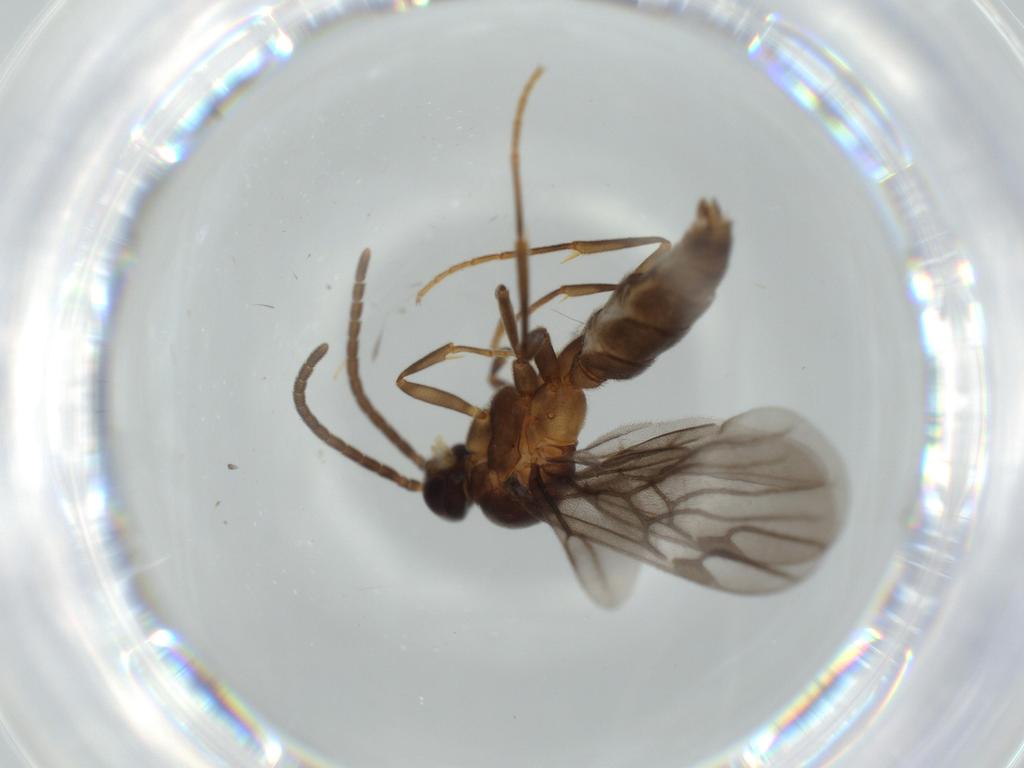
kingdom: Animalia
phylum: Arthropoda
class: Insecta
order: Hymenoptera
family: Formicidae
